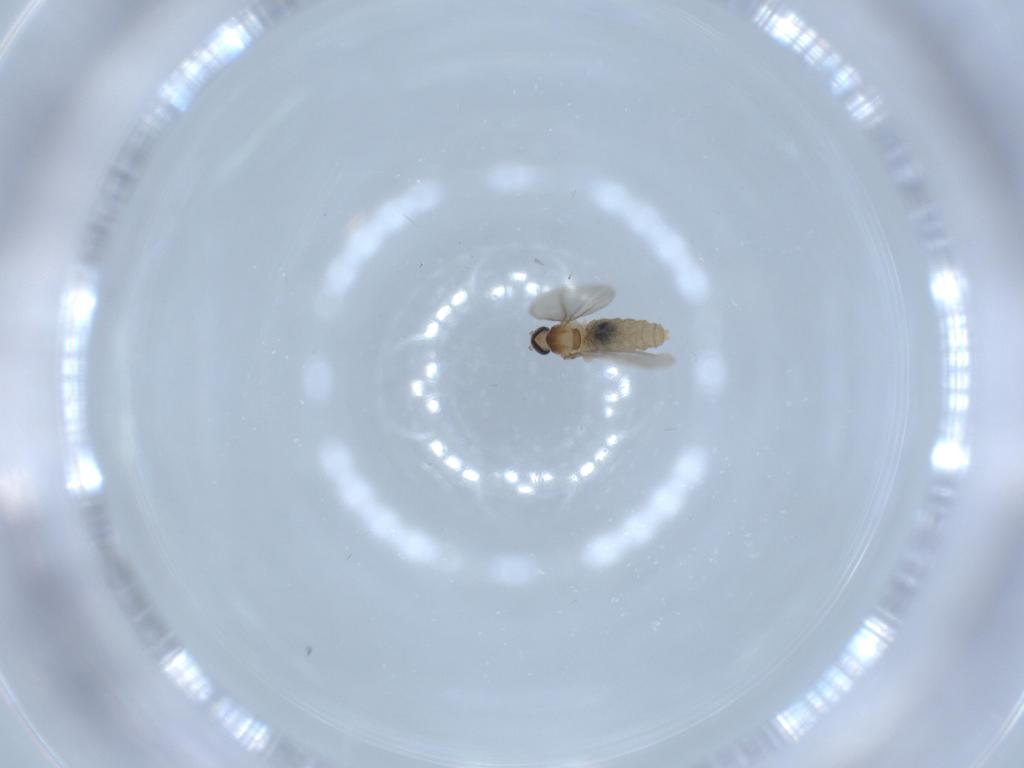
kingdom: Animalia
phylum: Arthropoda
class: Insecta
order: Diptera
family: Cecidomyiidae
